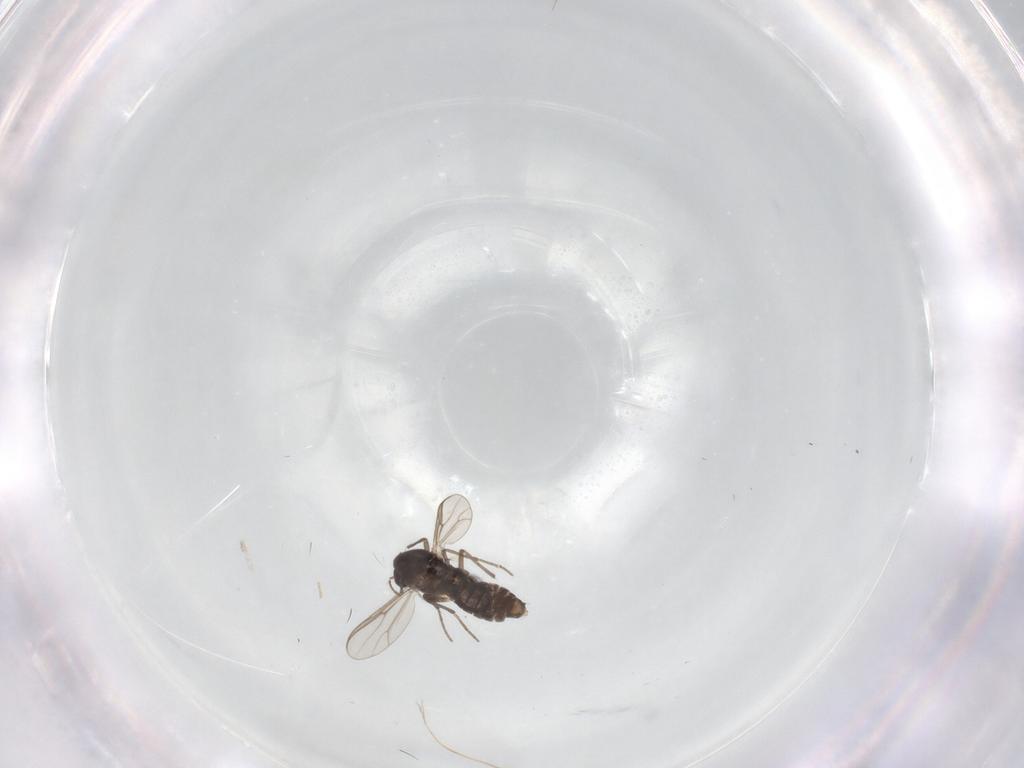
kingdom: Animalia
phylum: Arthropoda
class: Insecta
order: Diptera
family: Chironomidae
